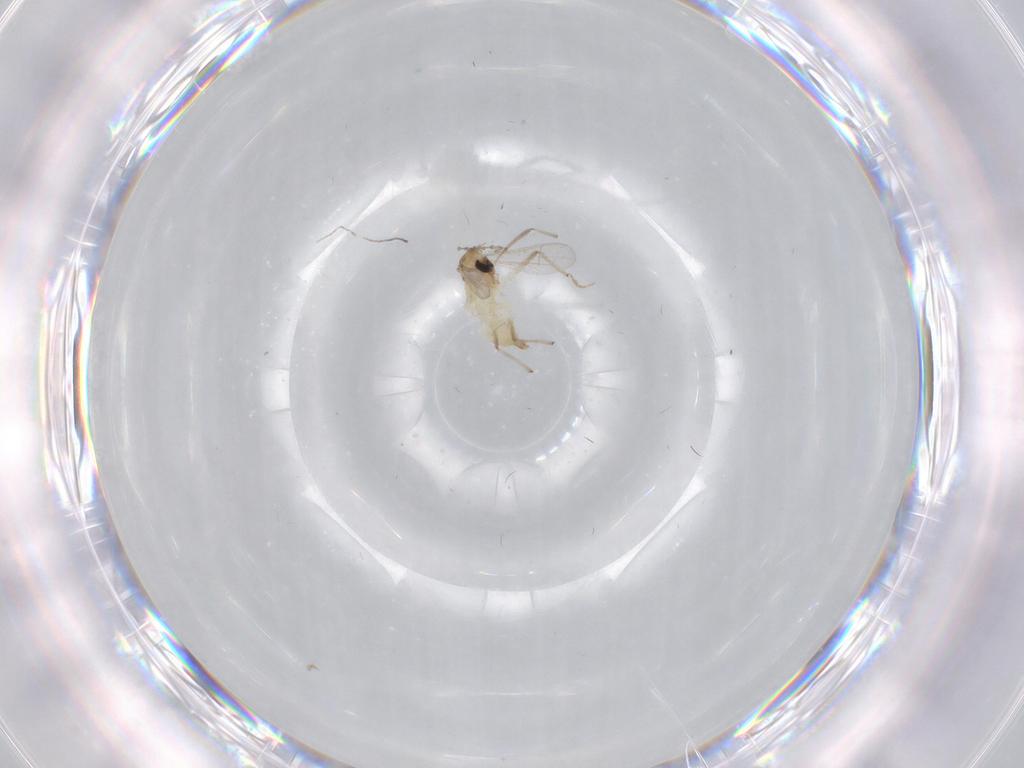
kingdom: Animalia
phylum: Arthropoda
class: Insecta
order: Diptera
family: Chironomidae
